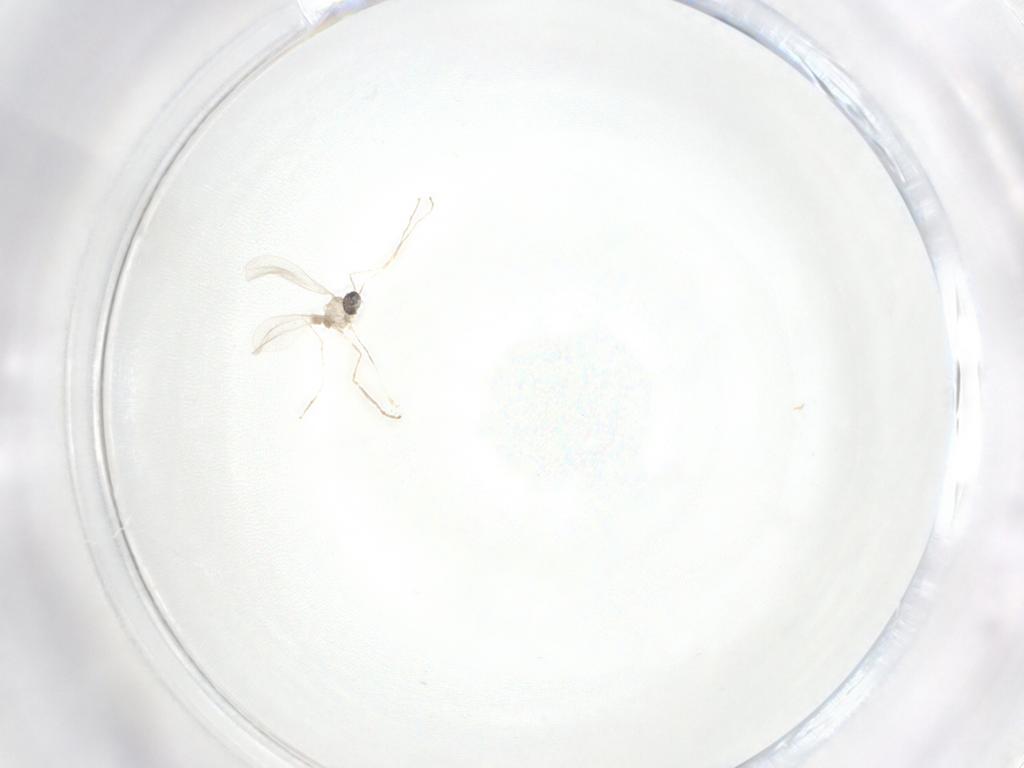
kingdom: Animalia
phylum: Arthropoda
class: Insecta
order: Diptera
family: Dolichopodidae
